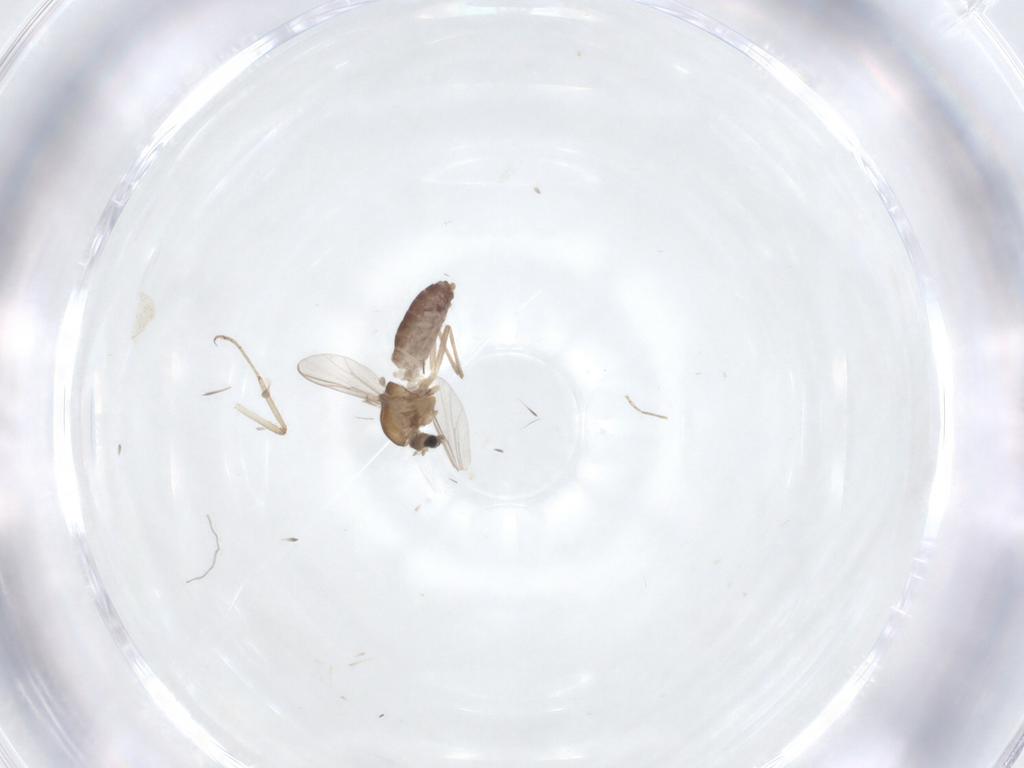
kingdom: Animalia
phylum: Arthropoda
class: Insecta
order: Diptera
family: Chironomidae
